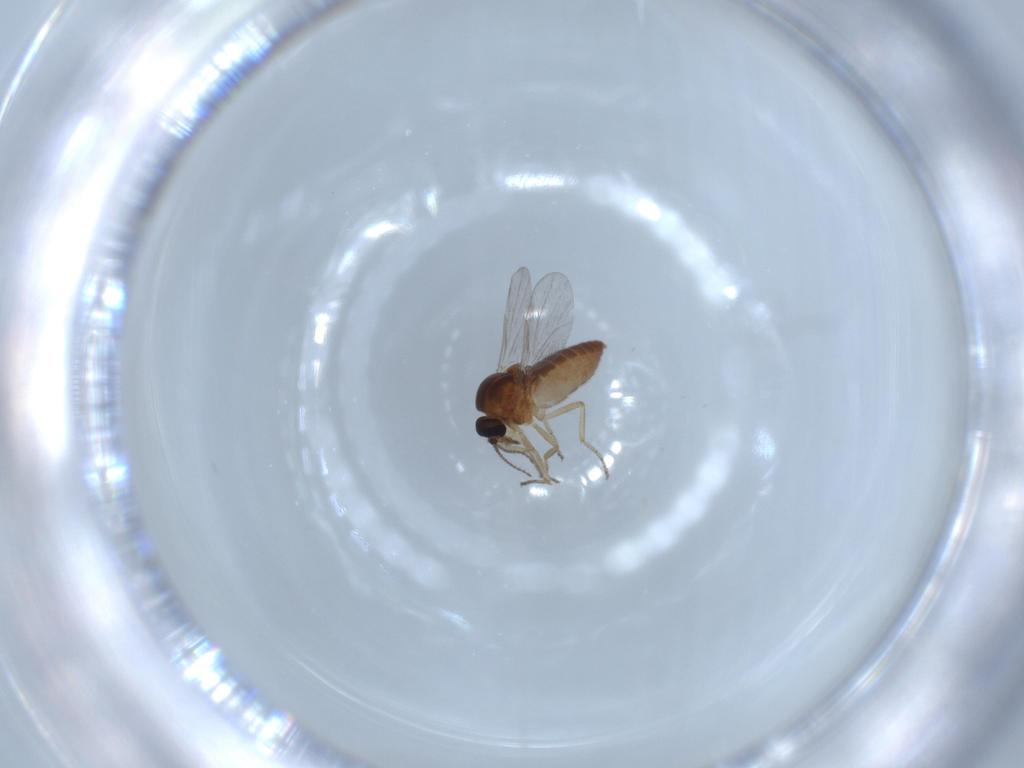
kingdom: Animalia
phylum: Arthropoda
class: Insecta
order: Diptera
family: Ceratopogonidae
